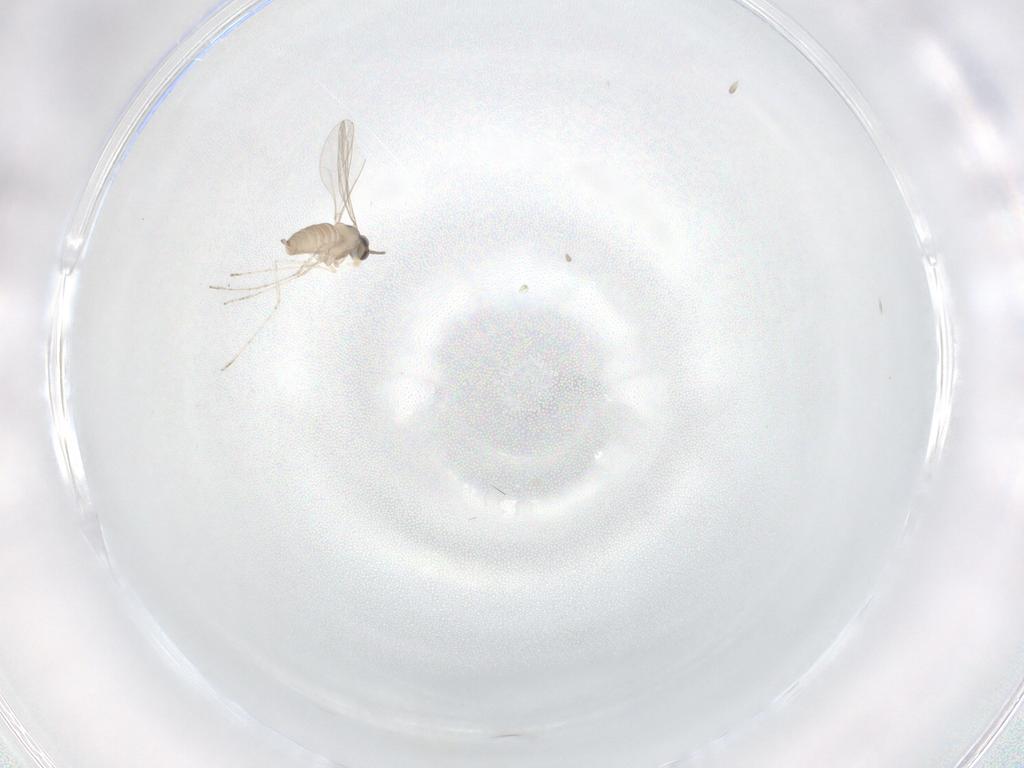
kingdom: Animalia
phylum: Arthropoda
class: Insecta
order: Diptera
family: Cecidomyiidae
